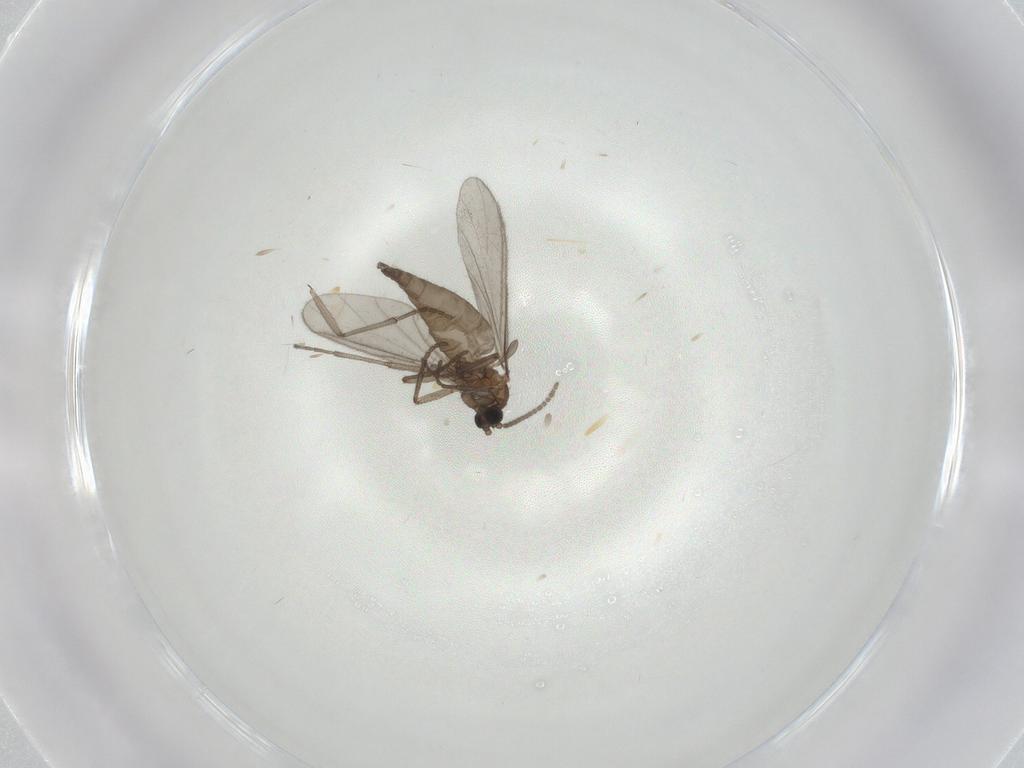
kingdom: Animalia
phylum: Arthropoda
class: Insecta
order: Diptera
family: Sciaridae
